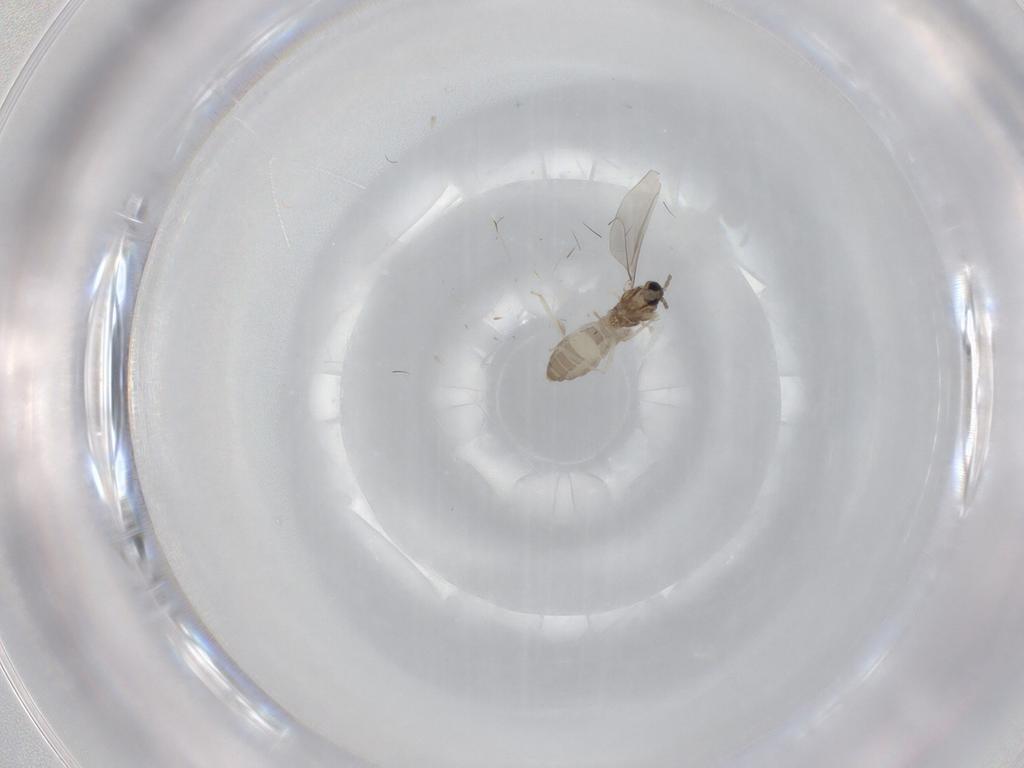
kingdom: Animalia
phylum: Arthropoda
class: Insecta
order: Diptera
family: Cecidomyiidae
